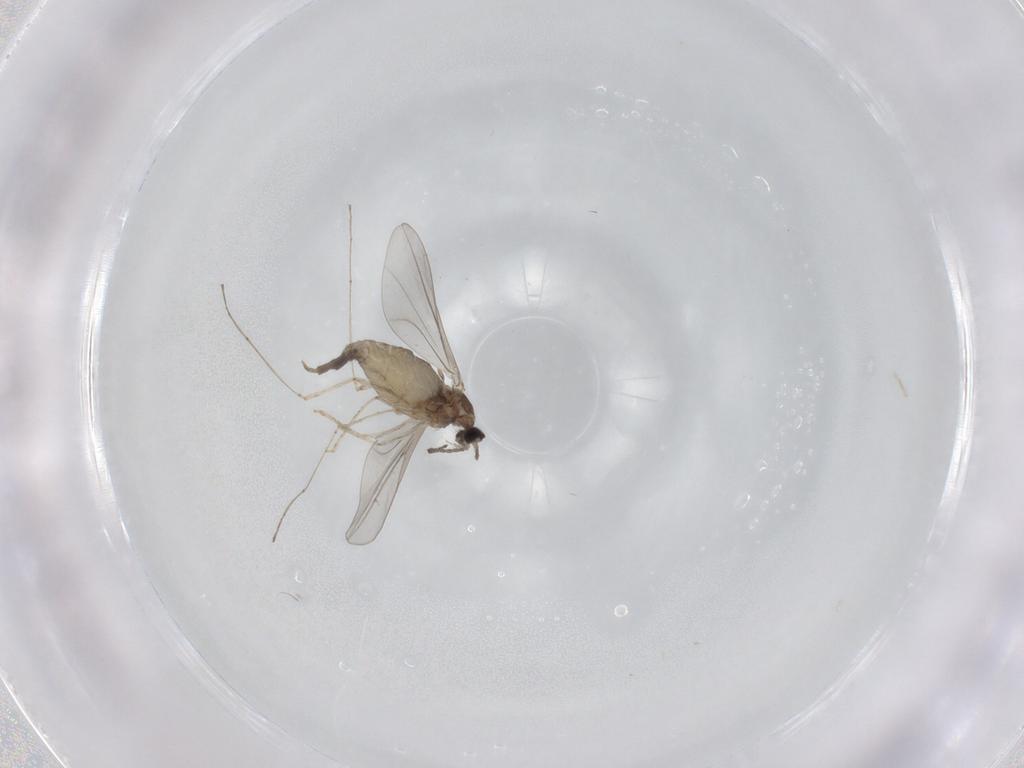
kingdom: Animalia
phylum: Arthropoda
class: Insecta
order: Diptera
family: Cecidomyiidae
